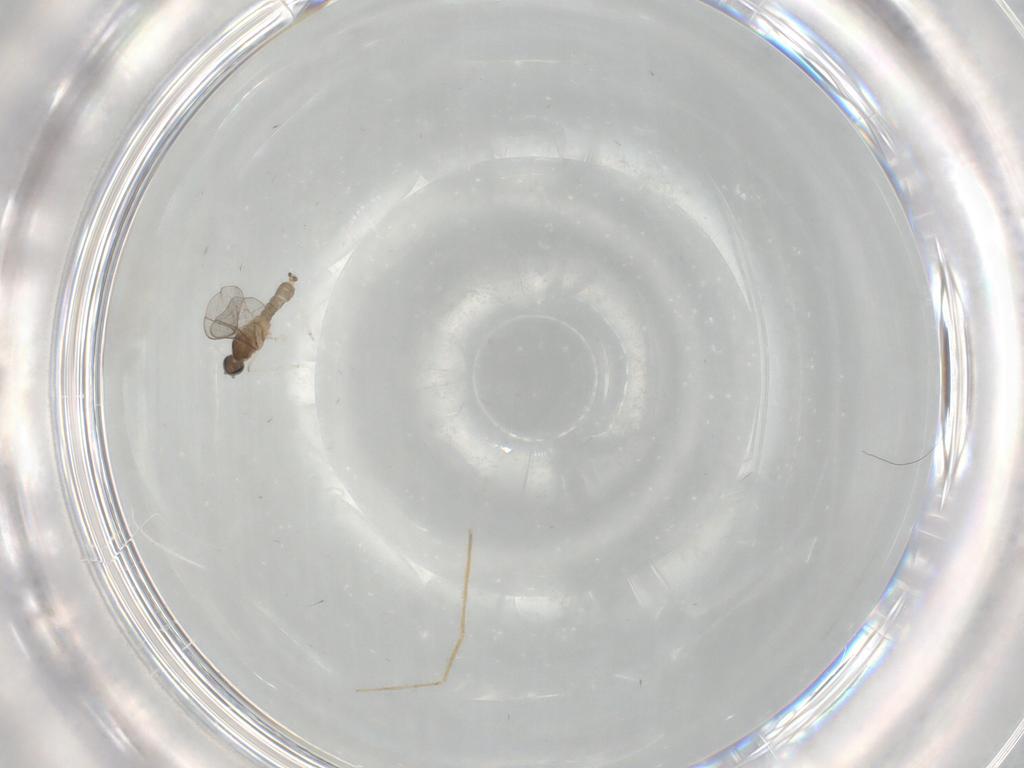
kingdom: Animalia
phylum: Arthropoda
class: Insecta
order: Diptera
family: Cecidomyiidae
